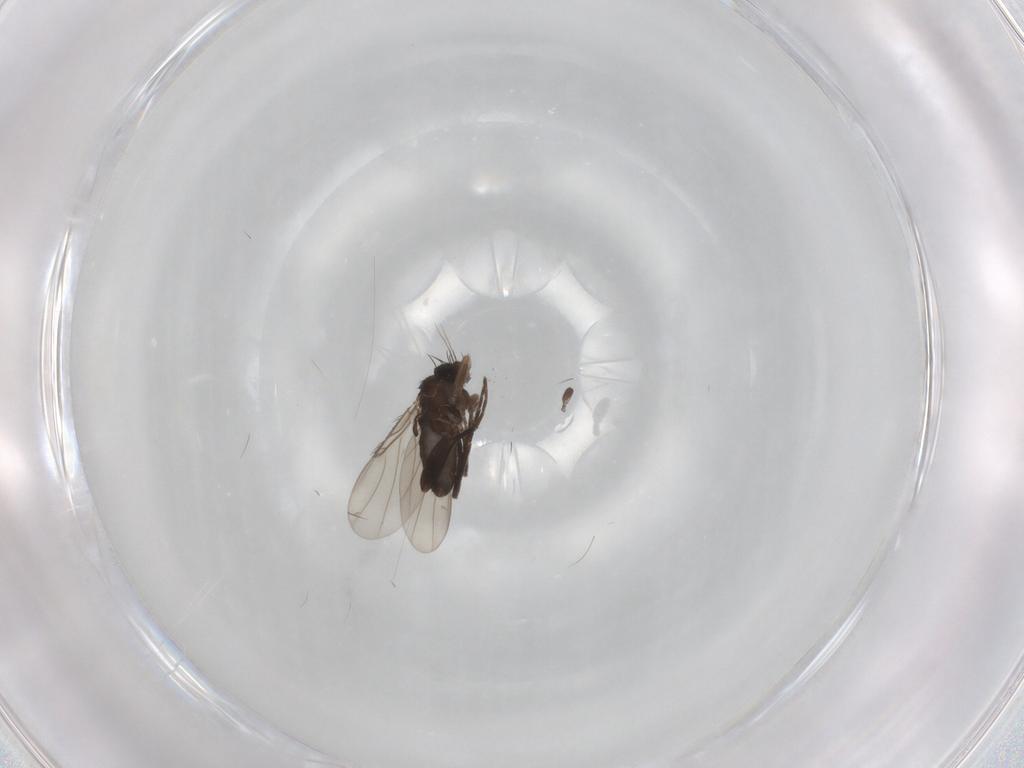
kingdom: Animalia
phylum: Arthropoda
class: Insecta
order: Diptera
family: Phoridae
